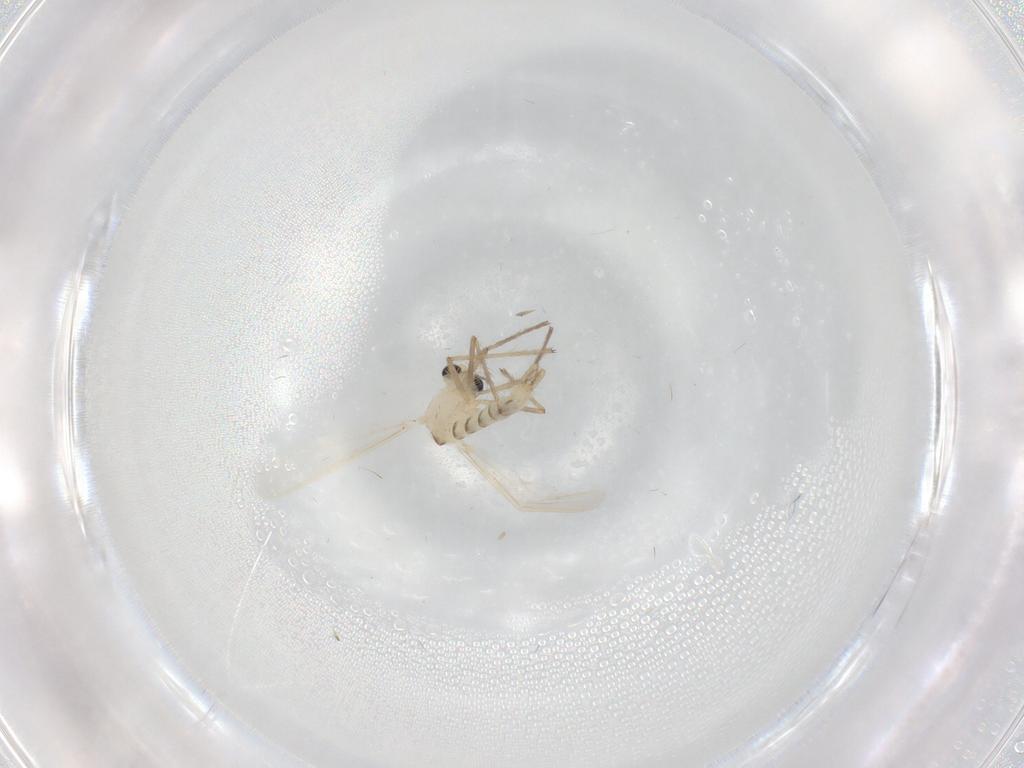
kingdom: Animalia
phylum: Arthropoda
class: Insecta
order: Diptera
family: Chironomidae
